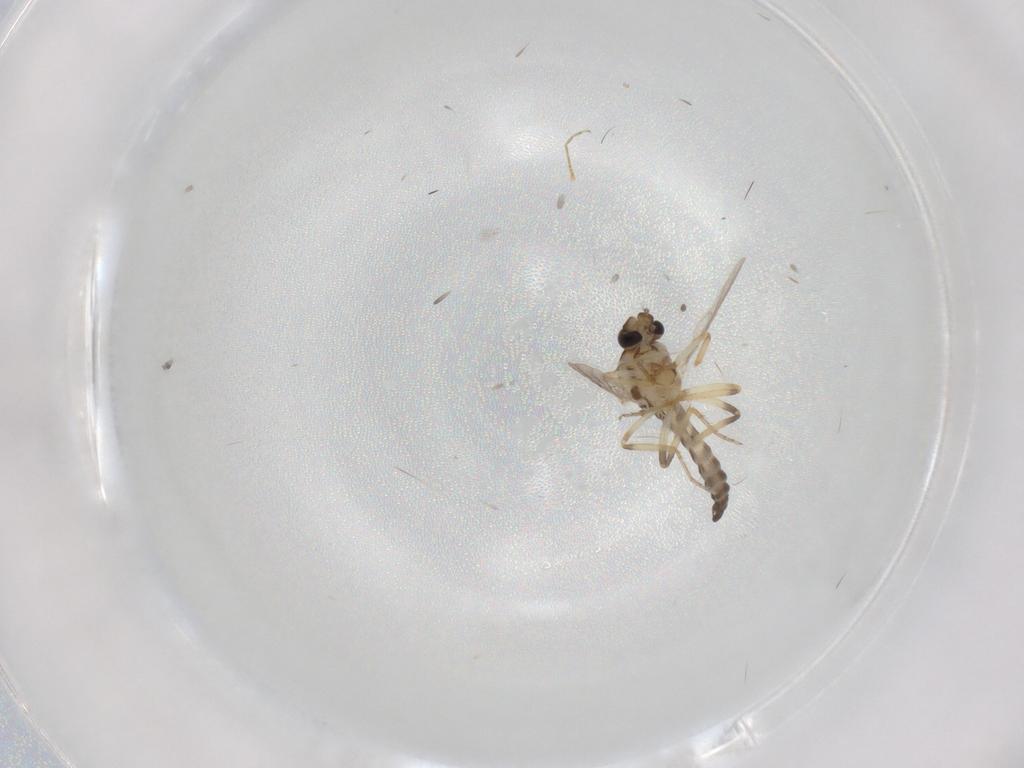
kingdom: Animalia
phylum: Arthropoda
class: Insecta
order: Diptera
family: Ceratopogonidae
